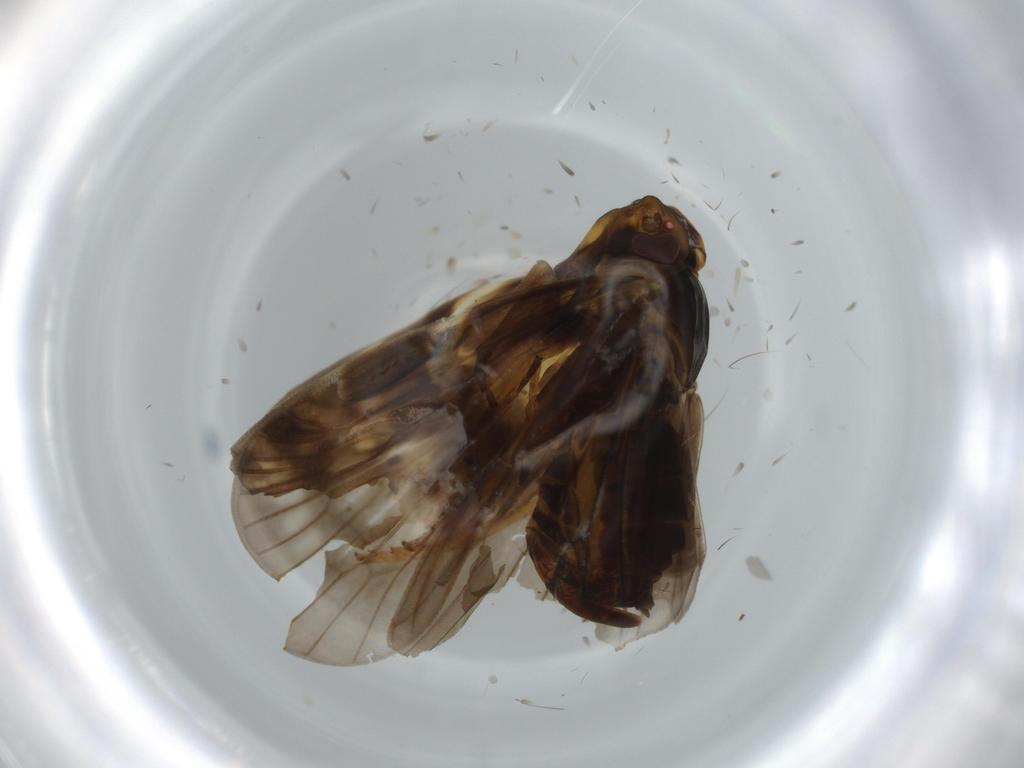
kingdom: Animalia
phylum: Arthropoda
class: Insecta
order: Hemiptera
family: Cixiidae
